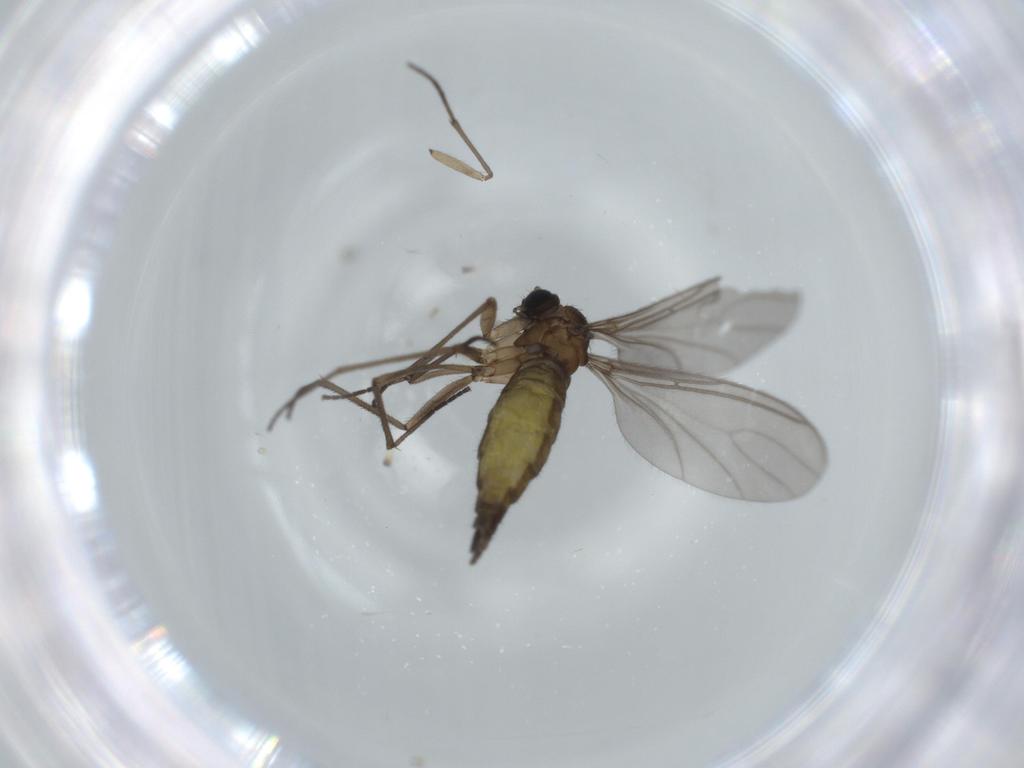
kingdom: Animalia
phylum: Arthropoda
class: Insecta
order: Diptera
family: Sciaridae
